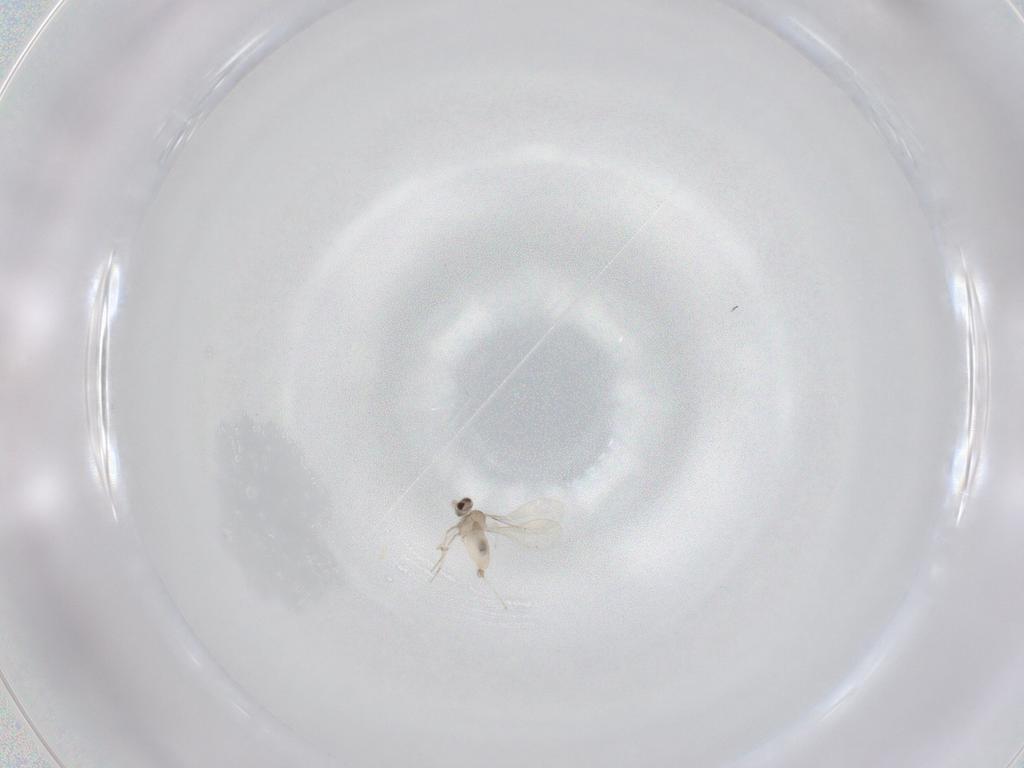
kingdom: Animalia
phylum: Arthropoda
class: Insecta
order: Diptera
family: Cecidomyiidae
